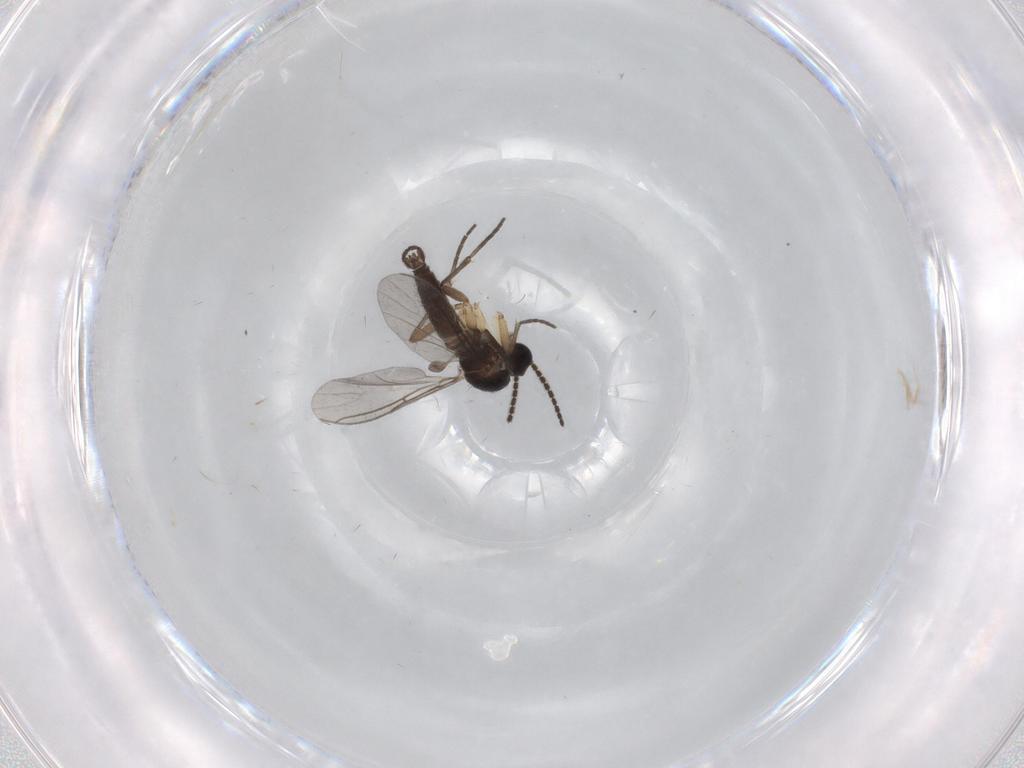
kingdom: Animalia
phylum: Arthropoda
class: Insecta
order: Diptera
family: Sciaridae
